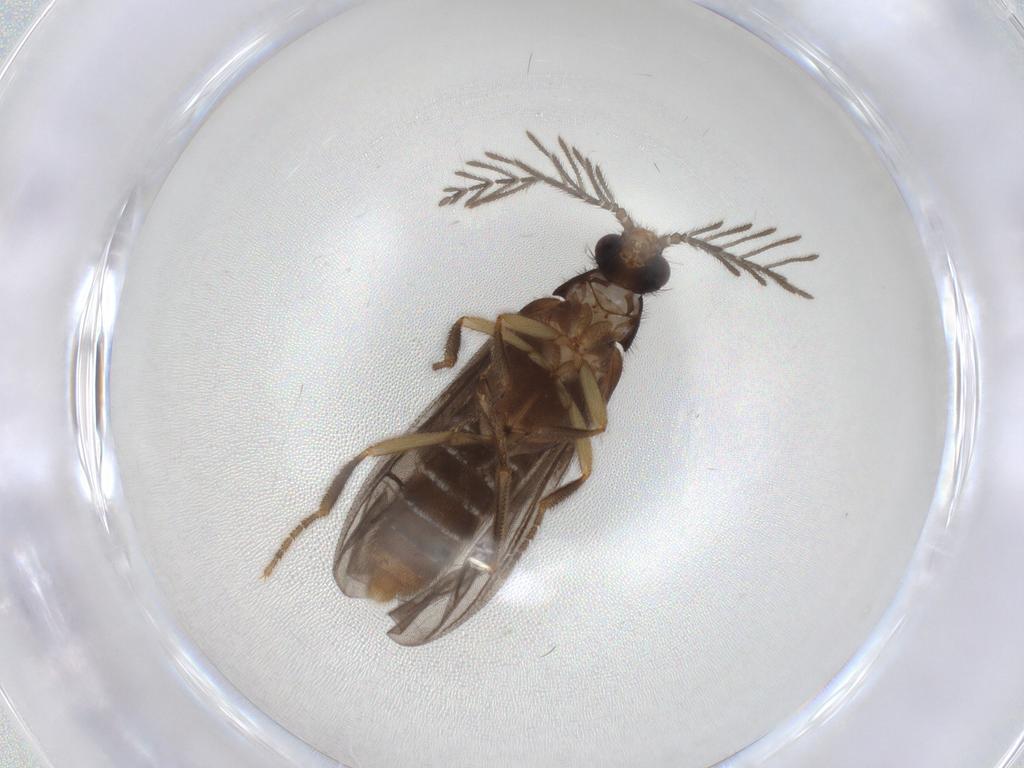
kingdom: Animalia
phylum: Arthropoda
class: Insecta
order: Lepidoptera
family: Notodontidae
